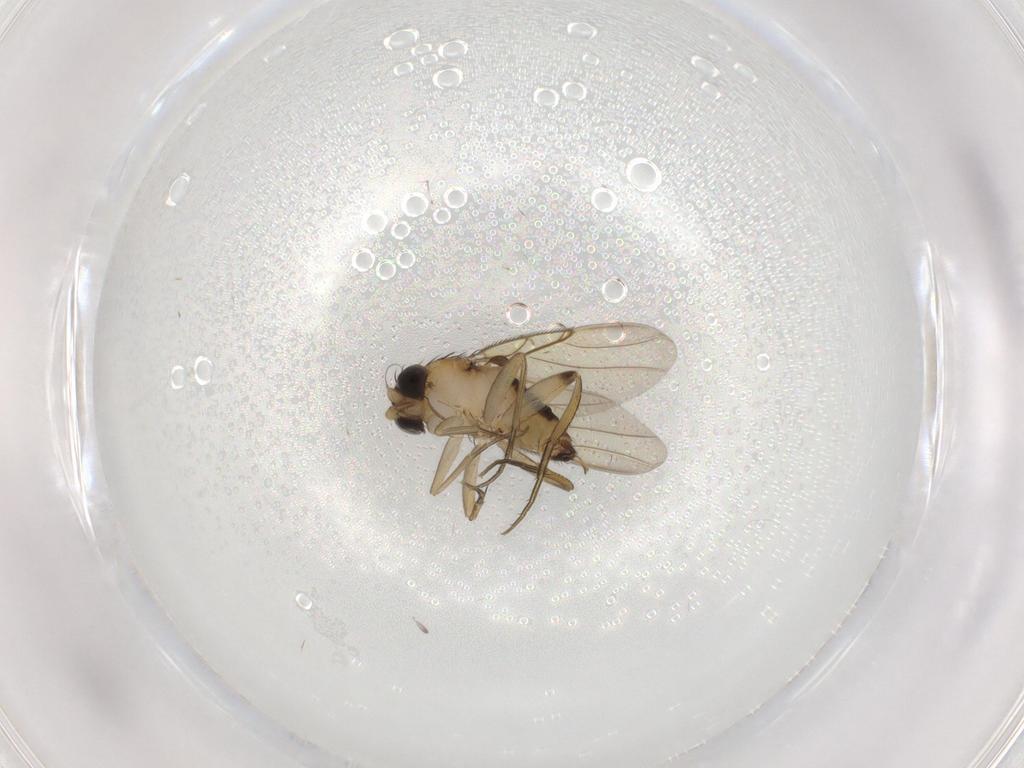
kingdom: Animalia
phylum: Arthropoda
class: Insecta
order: Diptera
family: Phoridae
